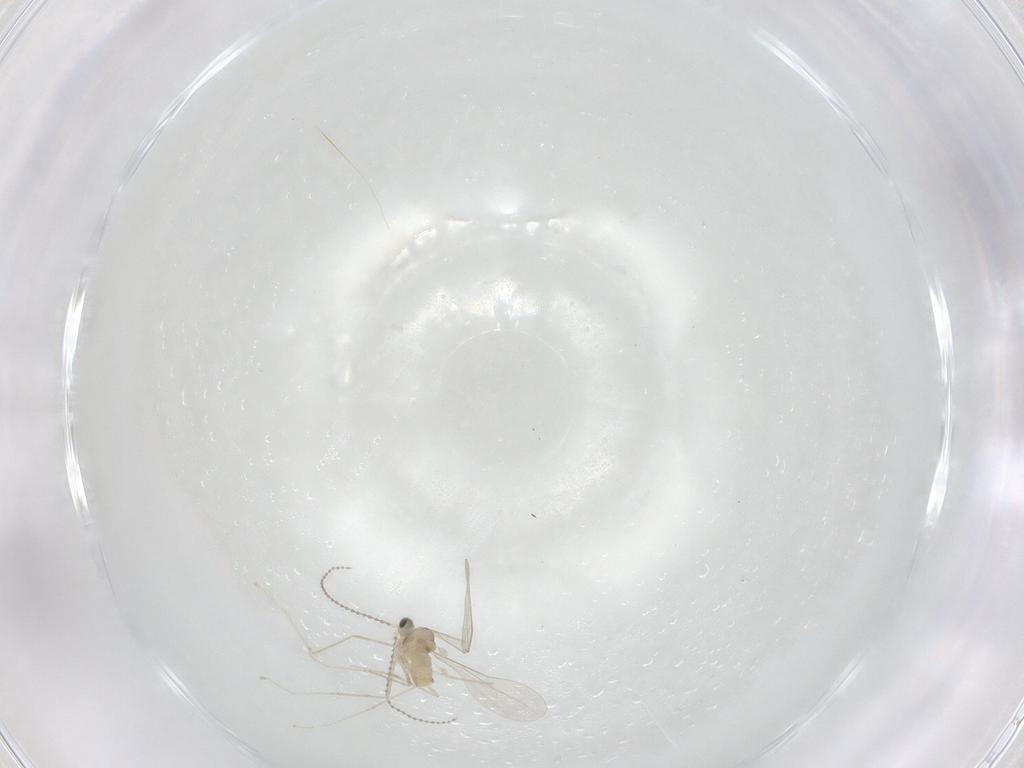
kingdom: Animalia
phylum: Arthropoda
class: Insecta
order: Diptera
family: Cecidomyiidae
